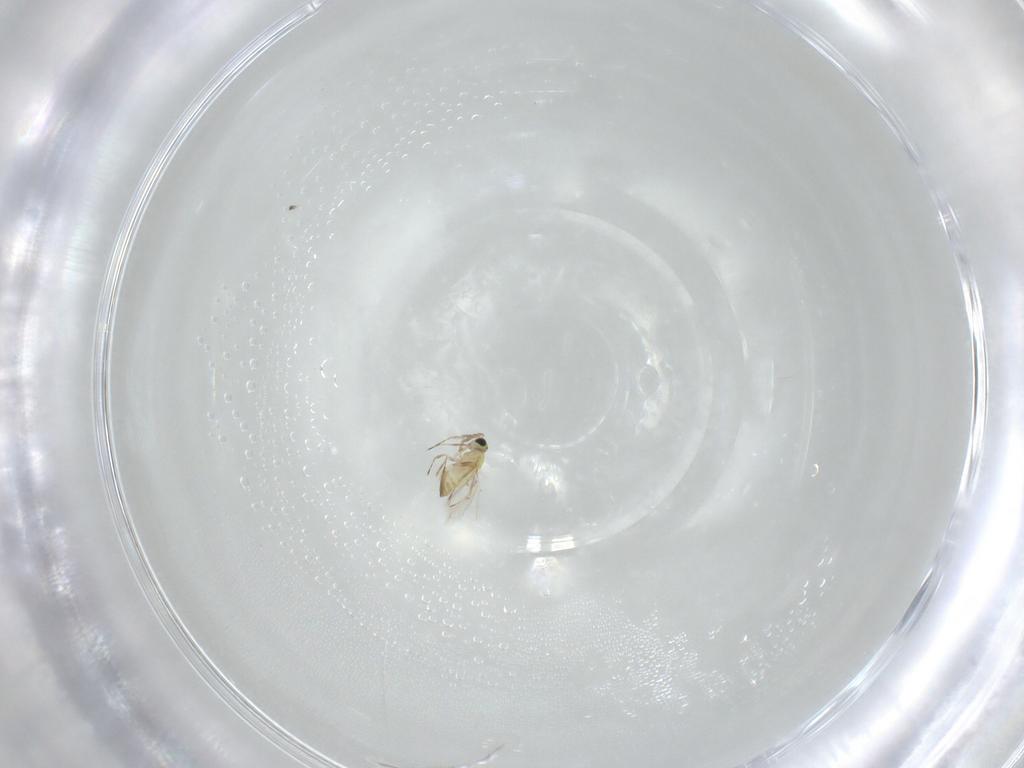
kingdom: Animalia
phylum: Arthropoda
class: Insecta
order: Hymenoptera
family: Trichogrammatidae
